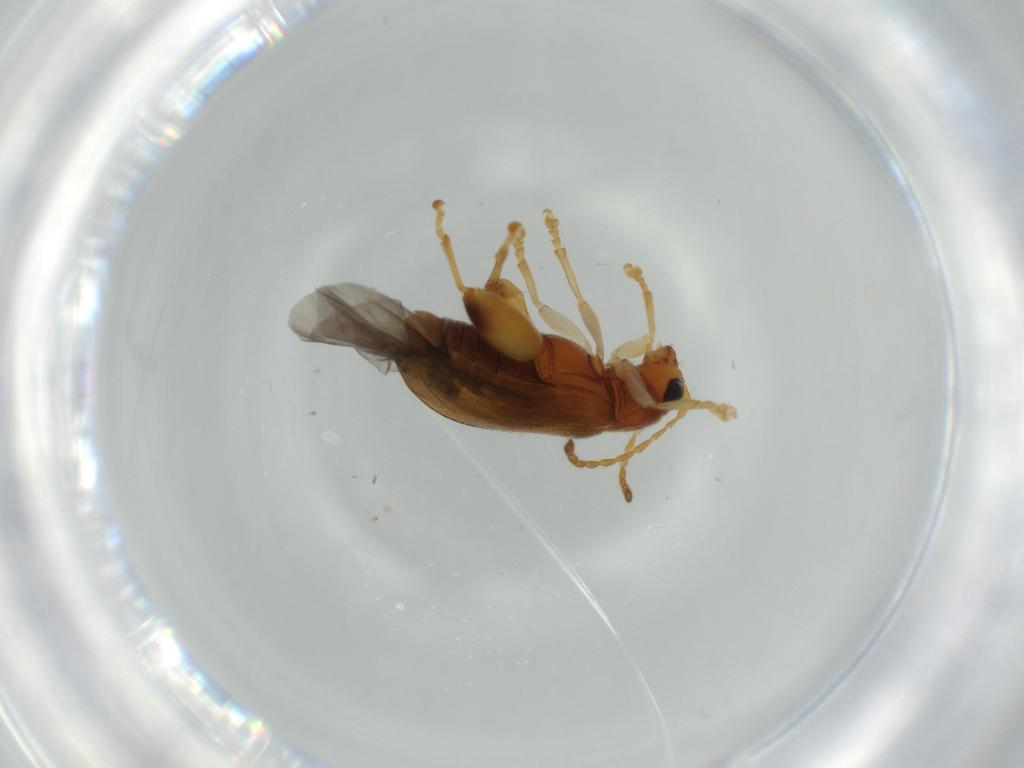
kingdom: Animalia
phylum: Arthropoda
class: Insecta
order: Coleoptera
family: Chrysomelidae
